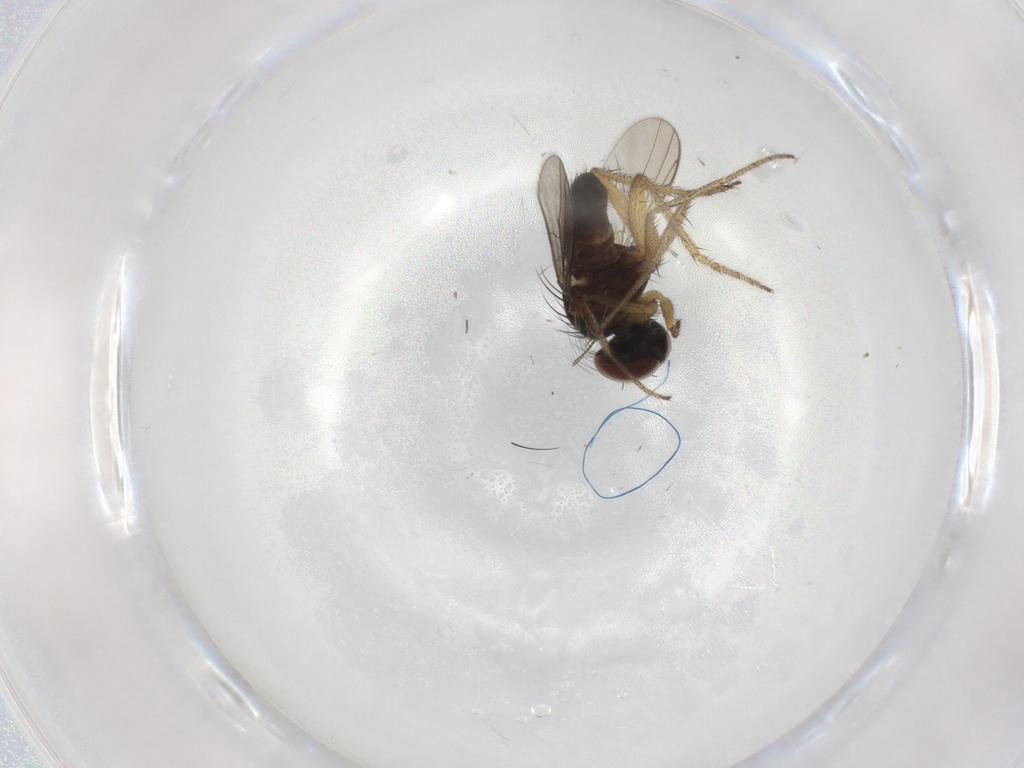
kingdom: Animalia
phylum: Arthropoda
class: Insecta
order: Diptera
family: Dolichopodidae
